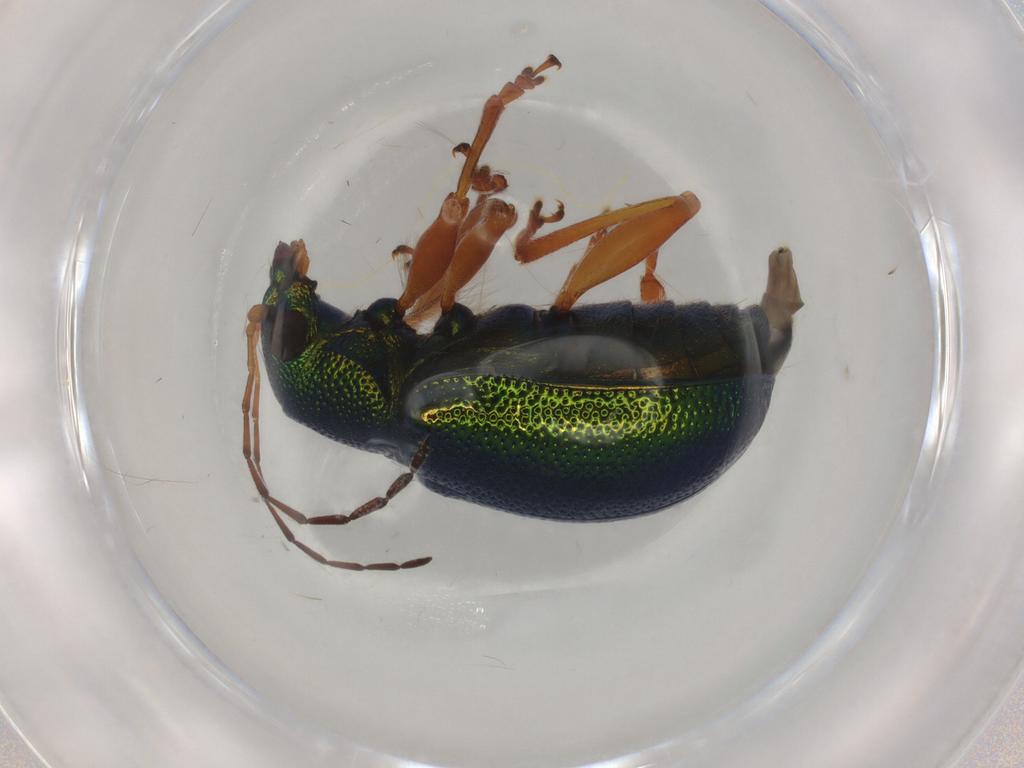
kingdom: Animalia
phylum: Arthropoda
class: Insecta
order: Coleoptera
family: Chrysomelidae
